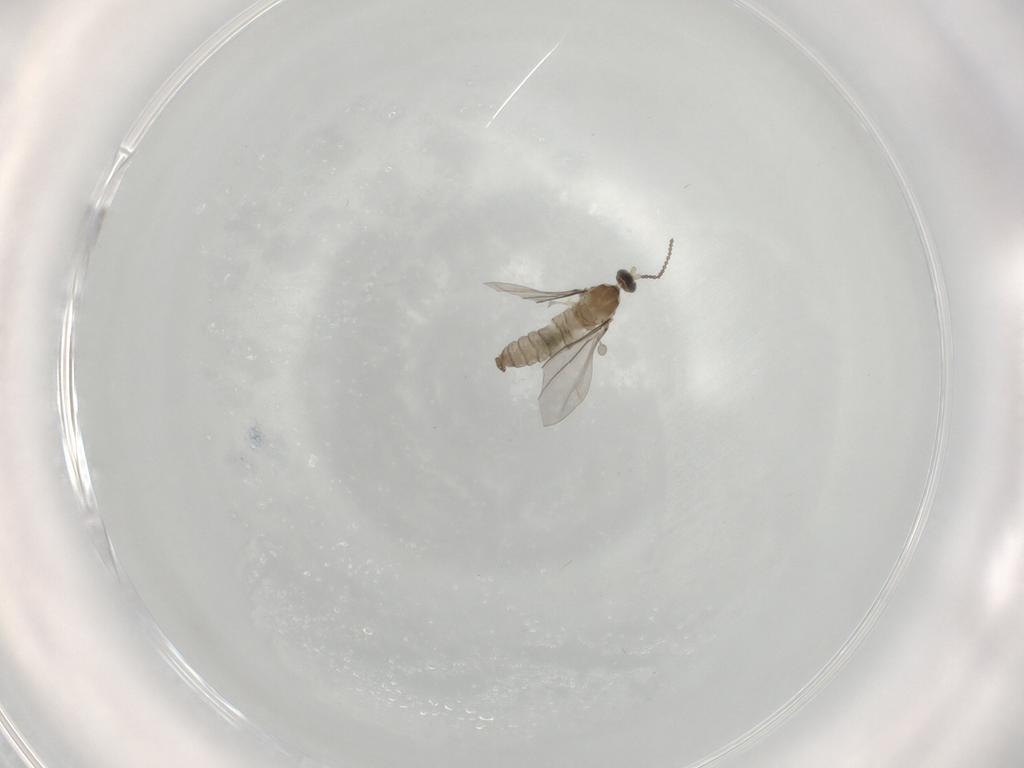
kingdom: Animalia
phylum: Arthropoda
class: Insecta
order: Diptera
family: Cecidomyiidae
